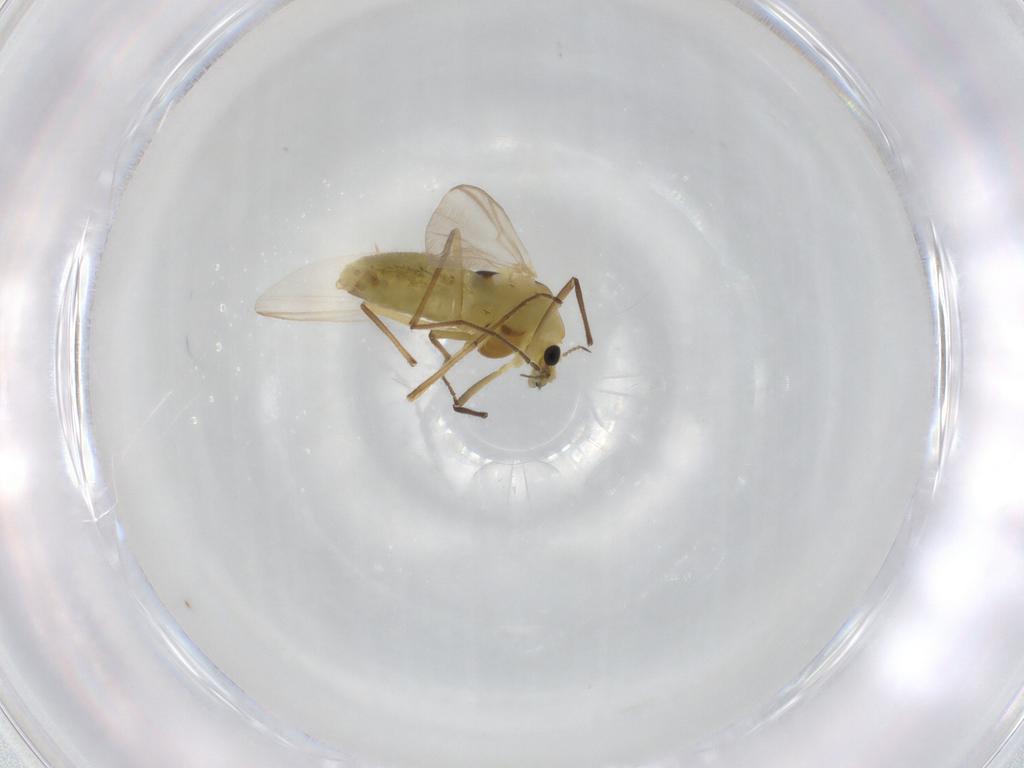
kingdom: Animalia
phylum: Arthropoda
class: Insecta
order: Diptera
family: Chironomidae
